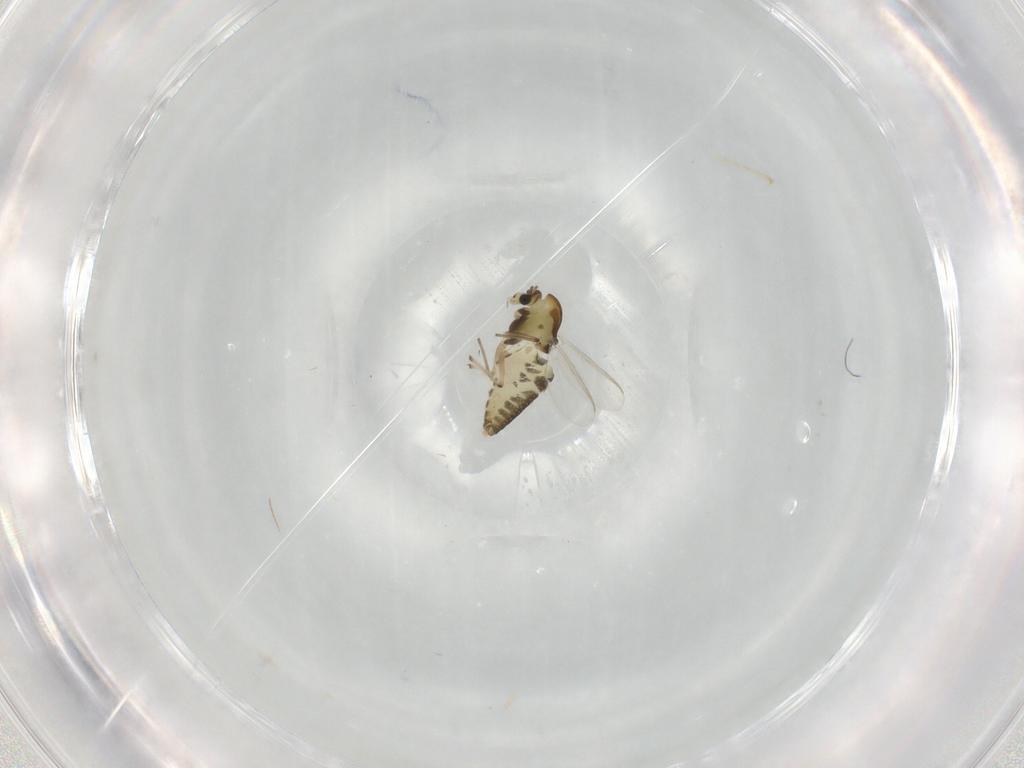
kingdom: Animalia
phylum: Arthropoda
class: Insecta
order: Diptera
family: Chironomidae
